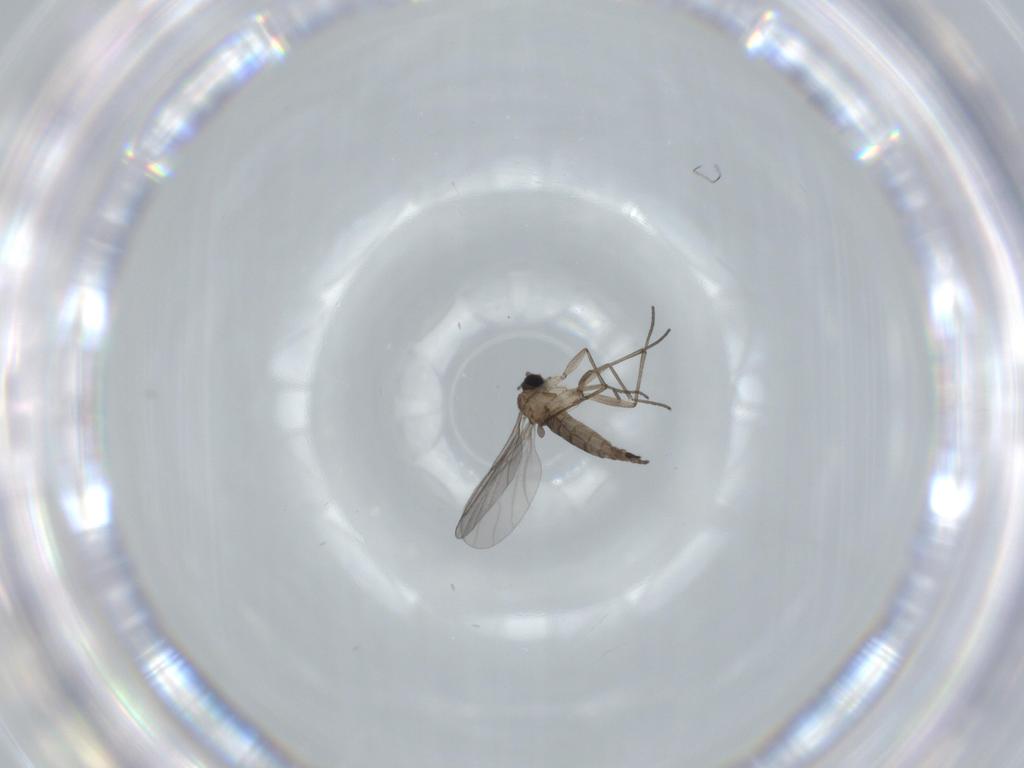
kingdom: Animalia
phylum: Arthropoda
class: Insecta
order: Diptera
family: Cecidomyiidae
